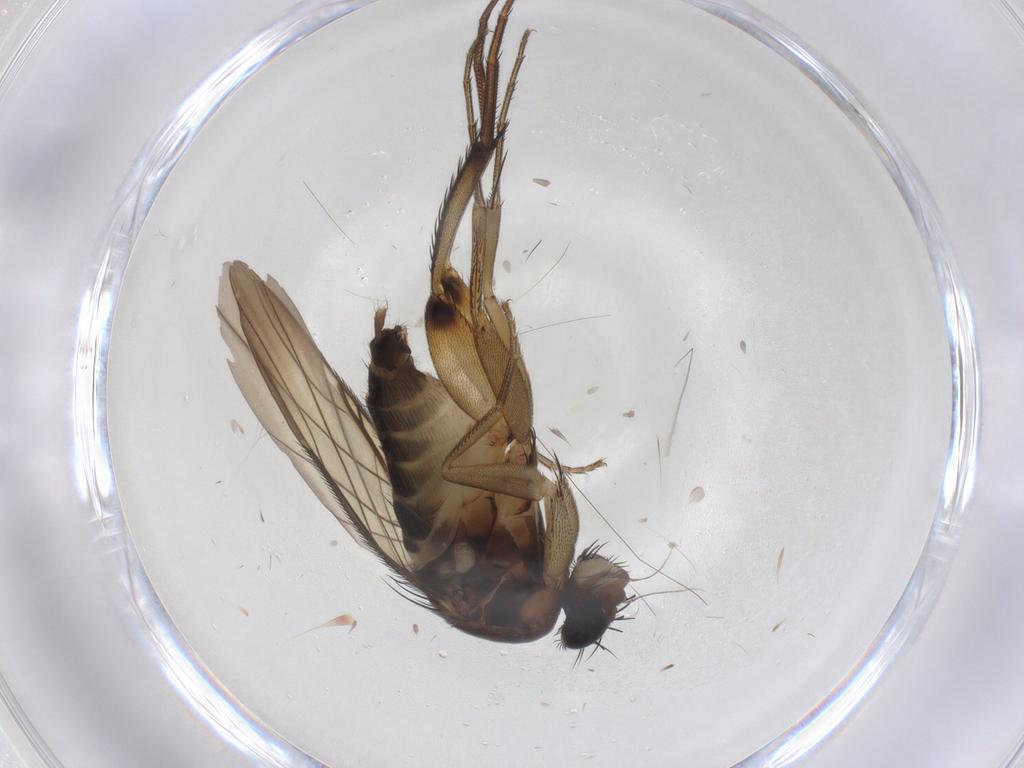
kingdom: Animalia
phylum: Arthropoda
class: Insecta
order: Diptera
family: Phoridae
